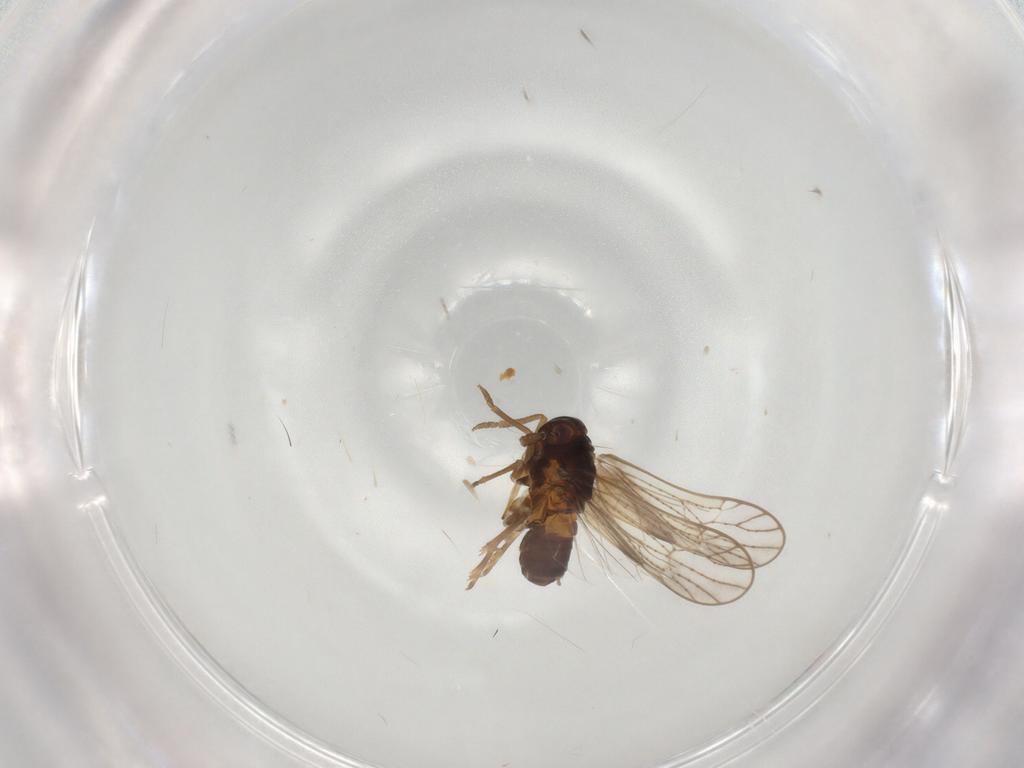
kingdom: Animalia
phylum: Arthropoda
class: Insecta
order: Hemiptera
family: Delphacidae
